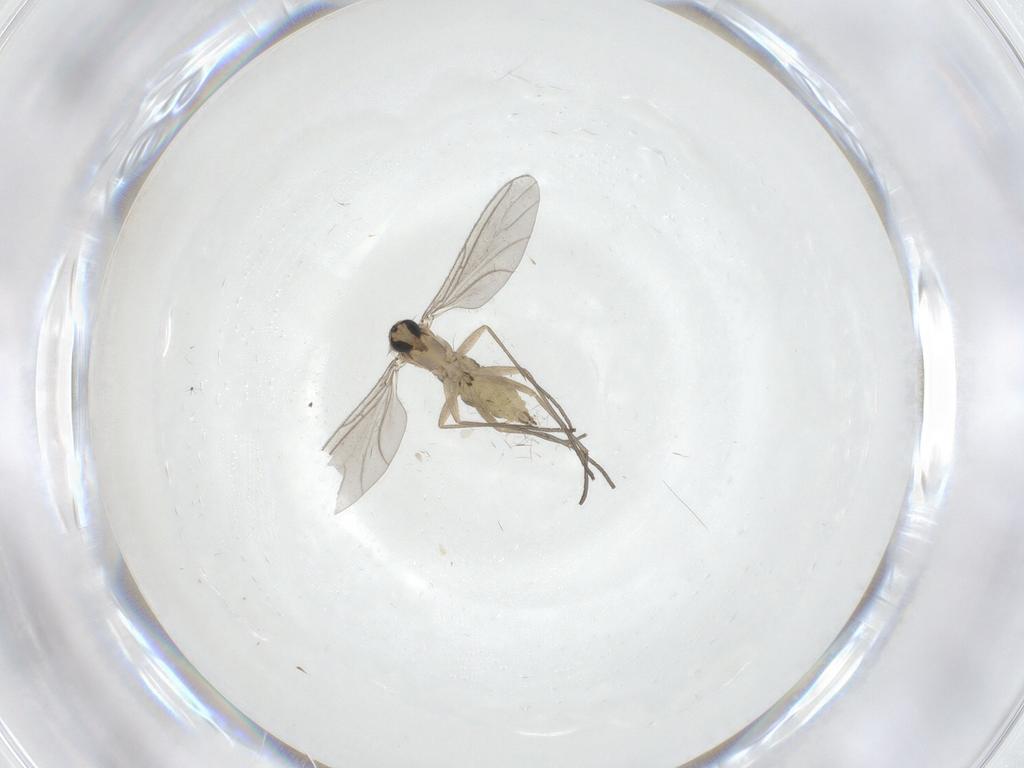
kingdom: Animalia
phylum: Arthropoda
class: Insecta
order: Diptera
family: Sciaridae
